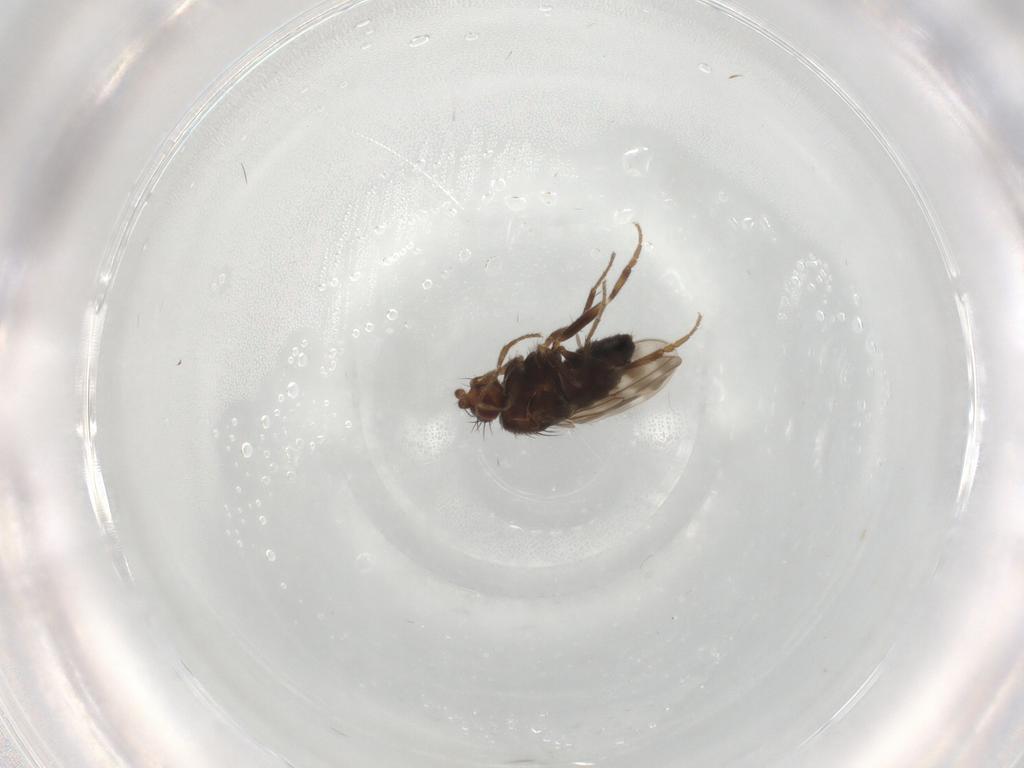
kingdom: Animalia
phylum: Arthropoda
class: Insecta
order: Diptera
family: Sphaeroceridae
